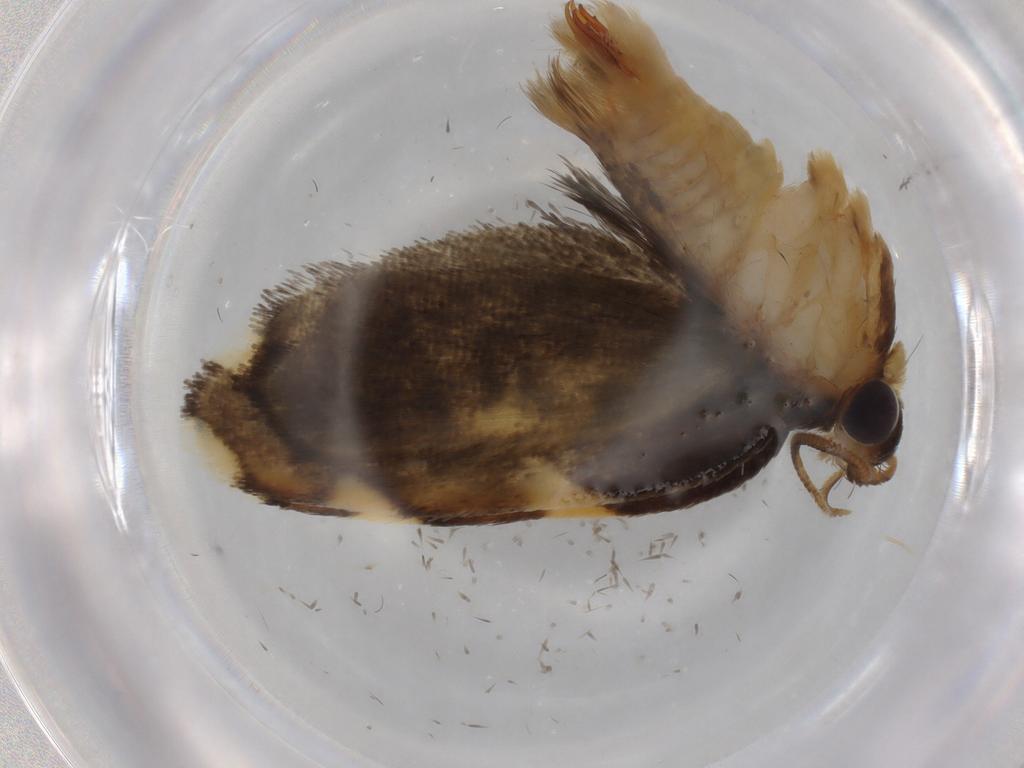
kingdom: Animalia
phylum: Arthropoda
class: Insecta
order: Lepidoptera
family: Psychidae
